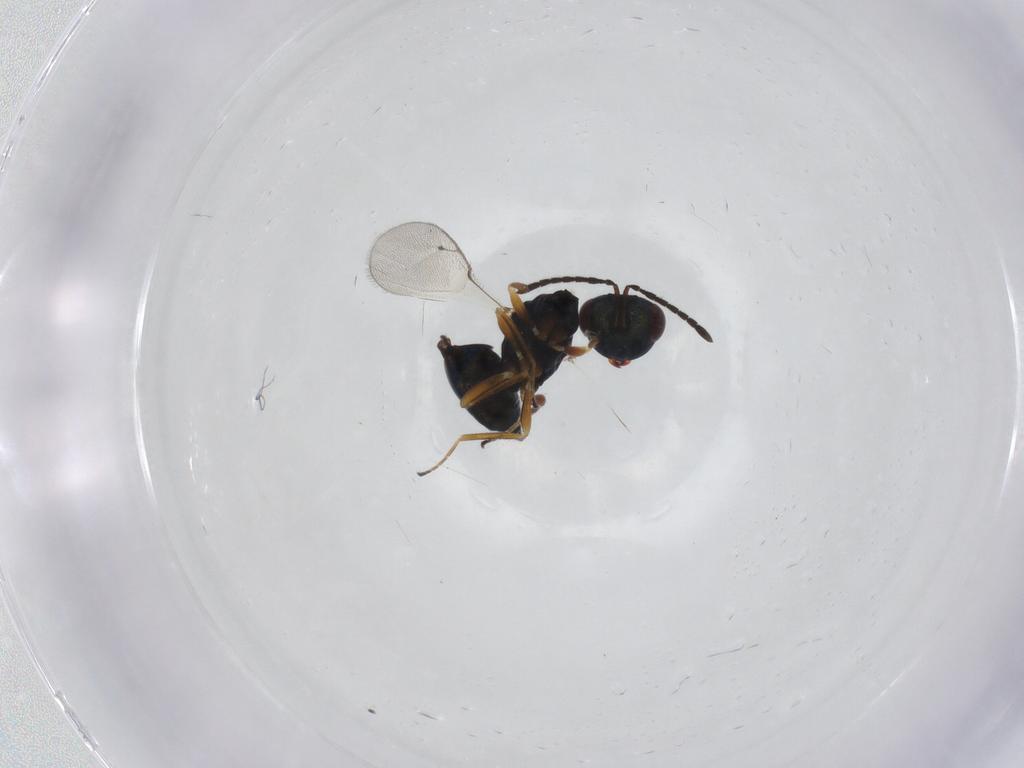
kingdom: Animalia
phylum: Arthropoda
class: Insecta
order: Hymenoptera
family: Pteromalidae
